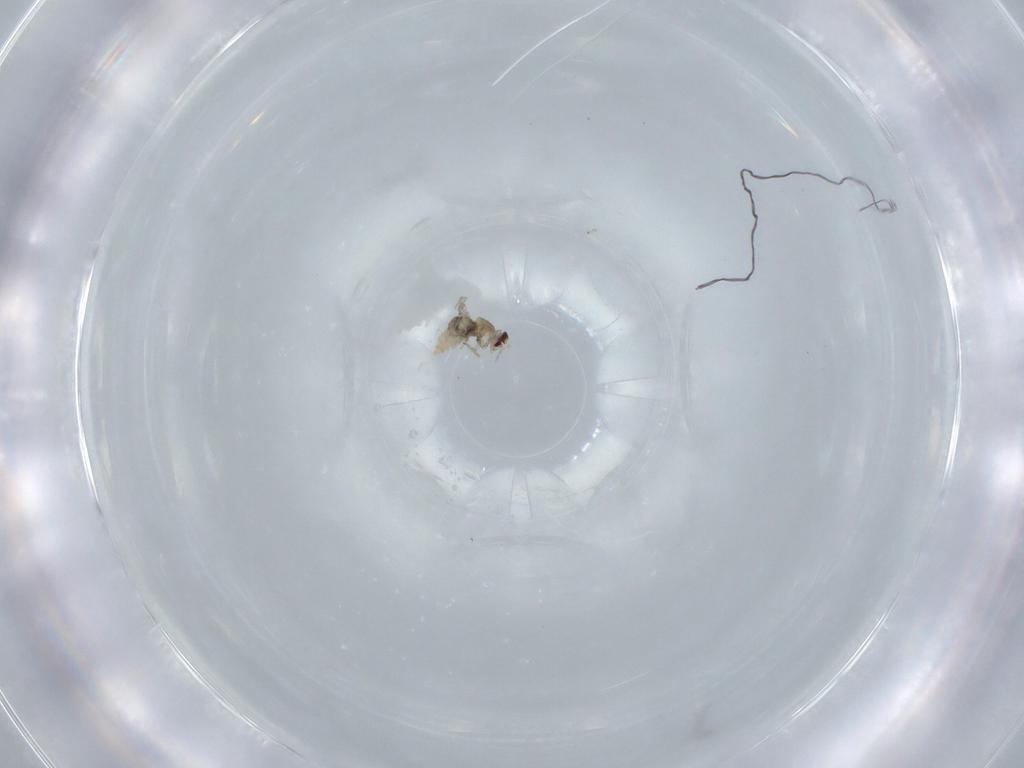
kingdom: Animalia
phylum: Arthropoda
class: Insecta
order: Diptera
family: Cecidomyiidae
